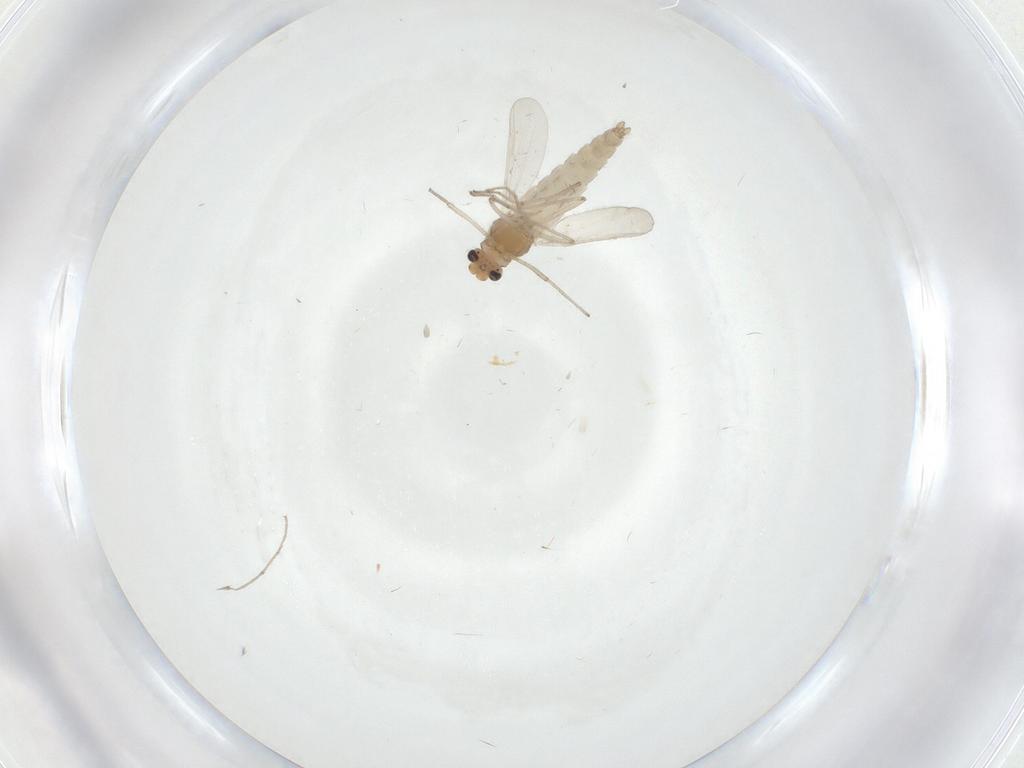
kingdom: Animalia
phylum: Arthropoda
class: Insecta
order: Diptera
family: Chironomidae
